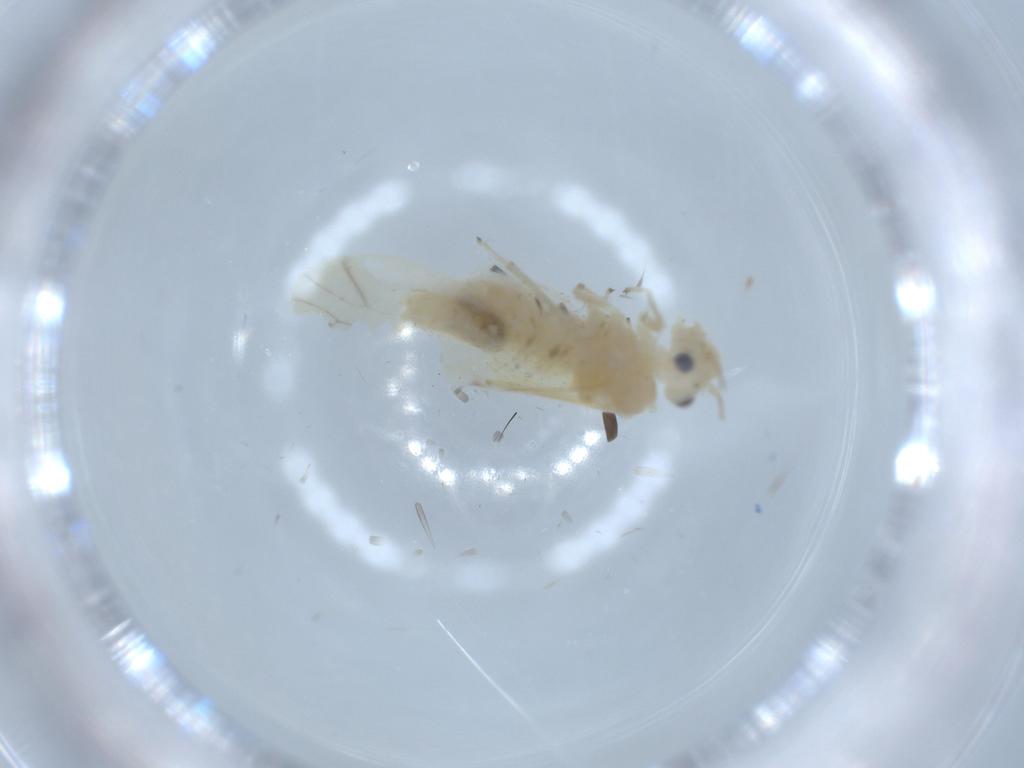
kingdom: Animalia
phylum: Arthropoda
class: Insecta
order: Psocodea
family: Caeciliusidae
